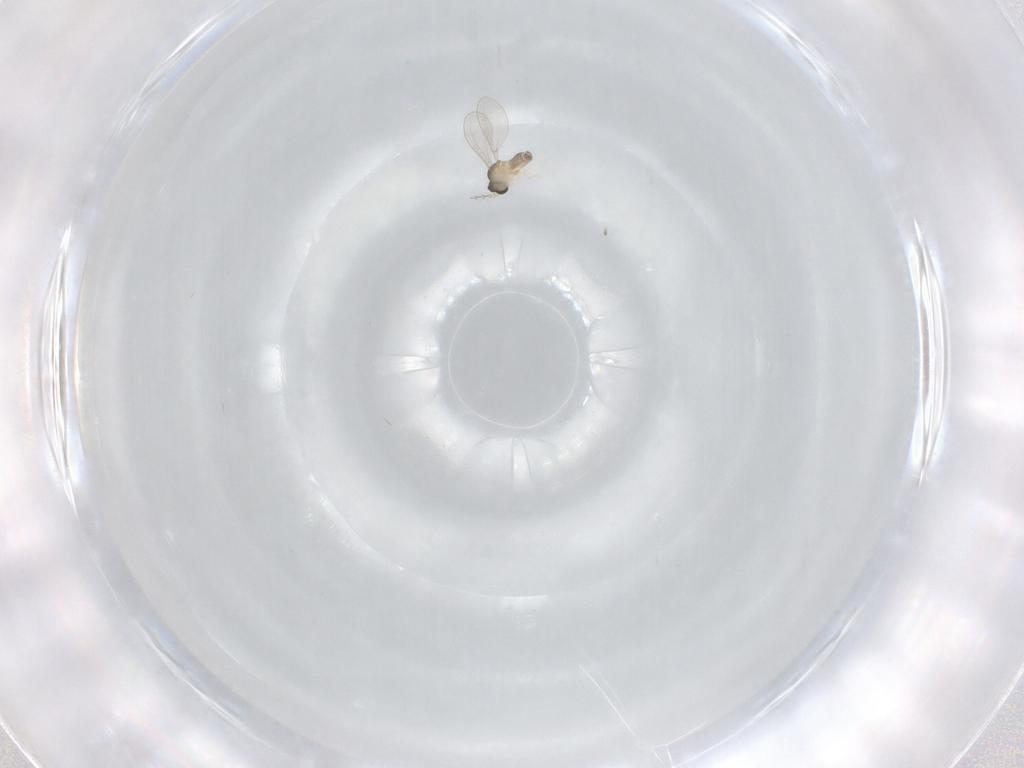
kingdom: Animalia
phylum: Arthropoda
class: Insecta
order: Diptera
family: Cecidomyiidae
